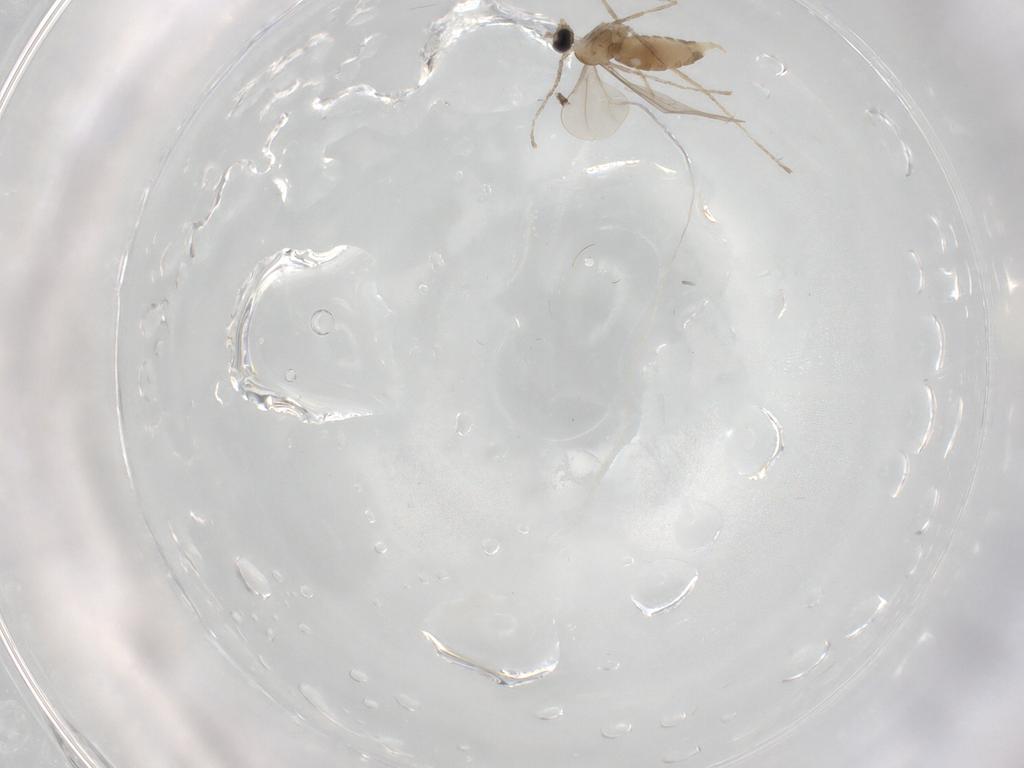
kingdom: Animalia
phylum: Arthropoda
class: Insecta
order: Diptera
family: Cecidomyiidae
